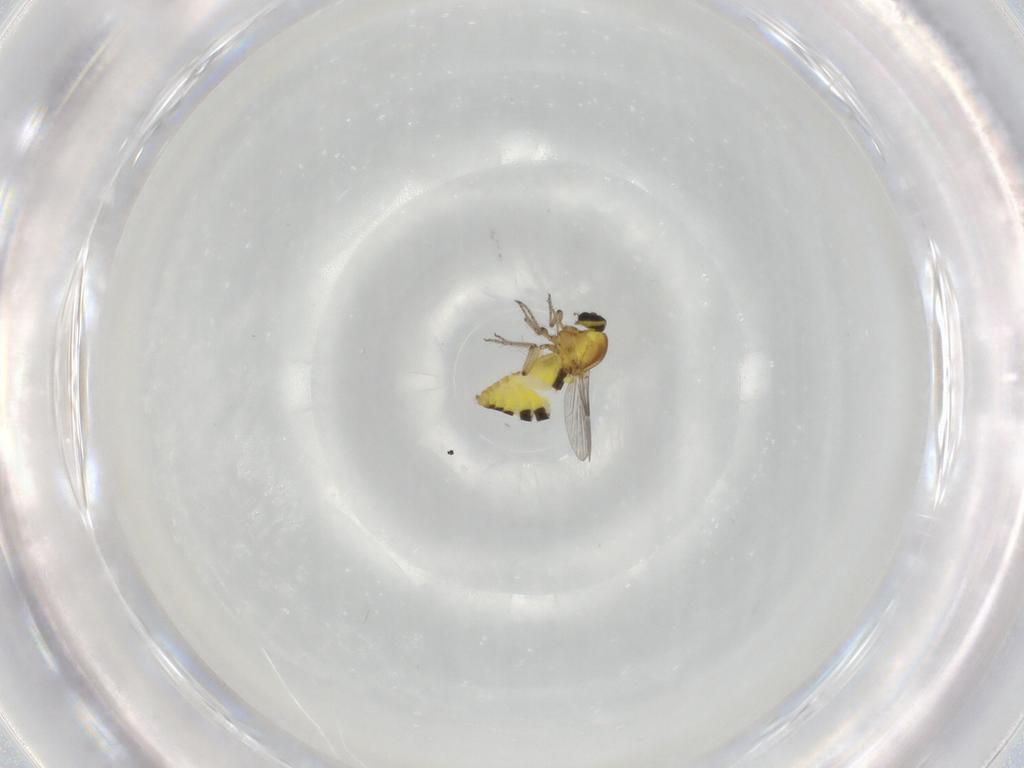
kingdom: Animalia
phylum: Arthropoda
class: Insecta
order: Diptera
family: Ceratopogonidae
